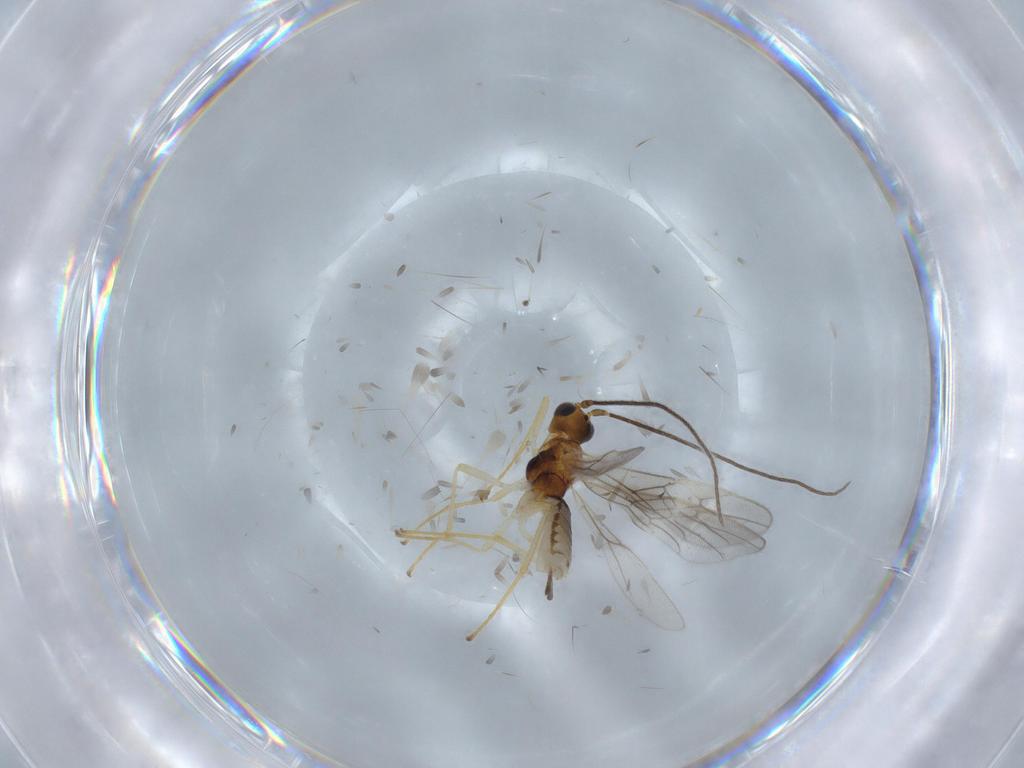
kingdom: Animalia
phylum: Arthropoda
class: Insecta
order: Hymenoptera
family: Braconidae
